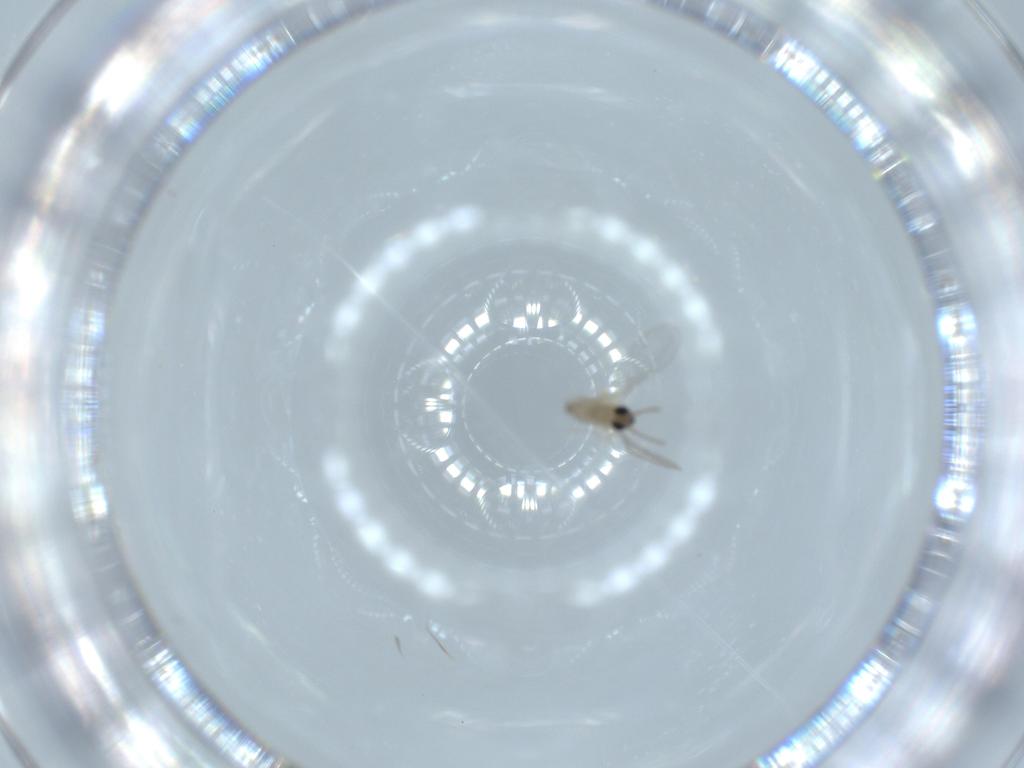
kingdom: Animalia
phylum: Arthropoda
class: Insecta
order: Diptera
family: Cecidomyiidae
